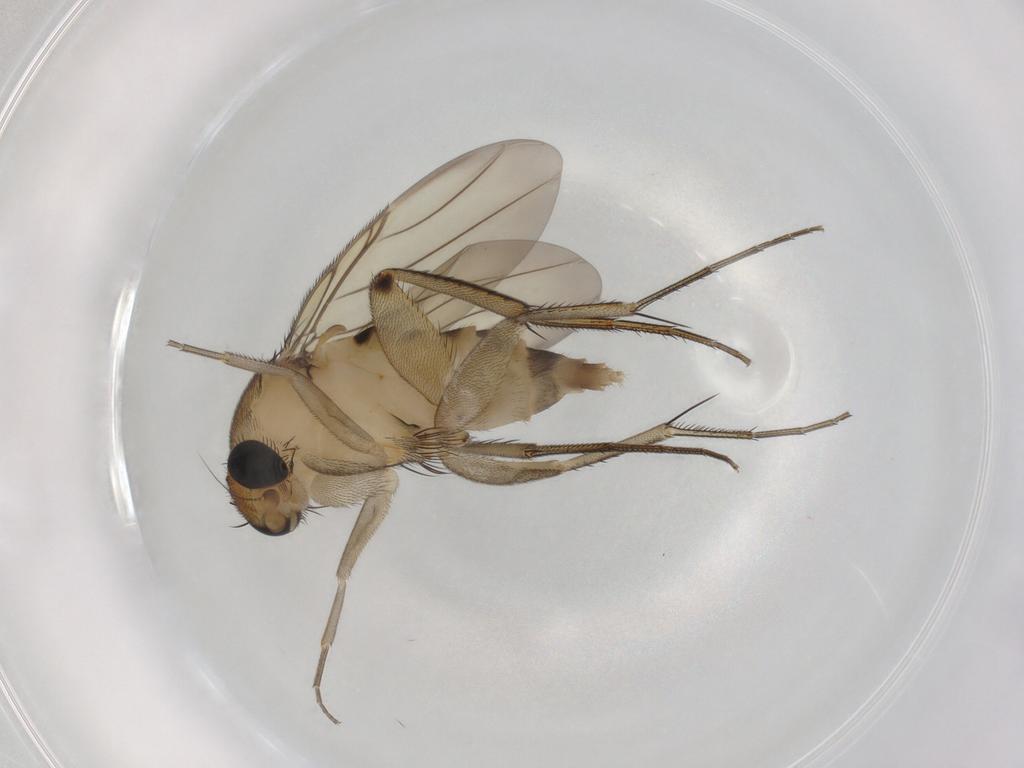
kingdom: Animalia
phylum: Arthropoda
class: Insecta
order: Diptera
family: Phoridae
